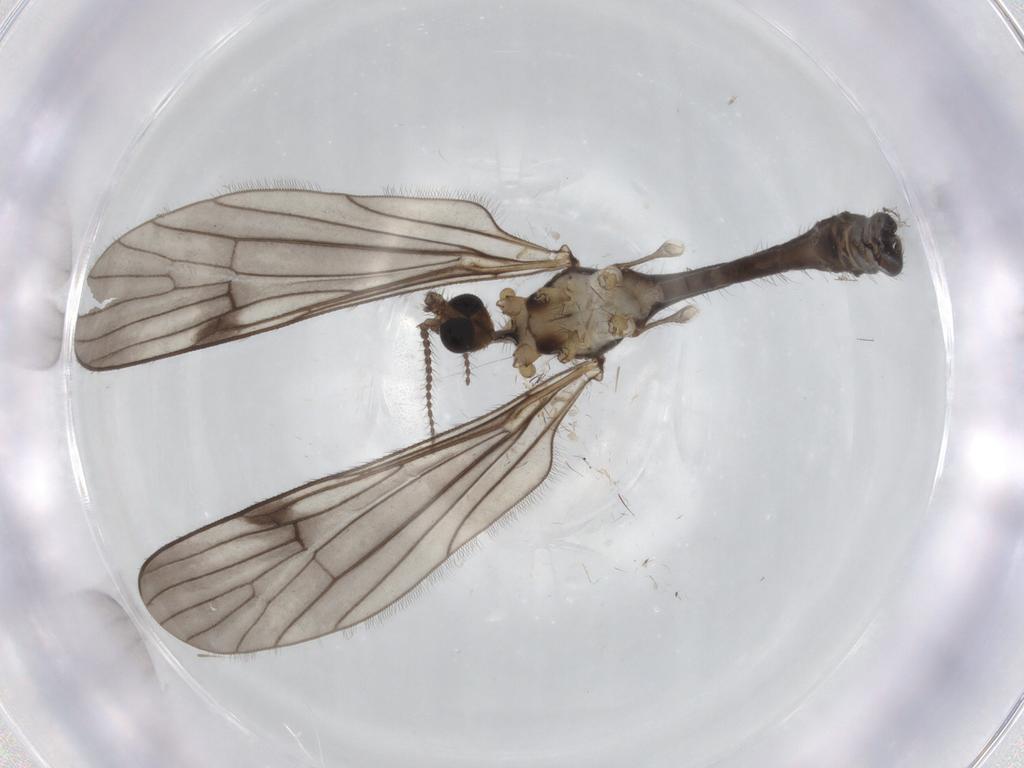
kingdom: Animalia
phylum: Arthropoda
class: Insecta
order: Diptera
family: Limoniidae
